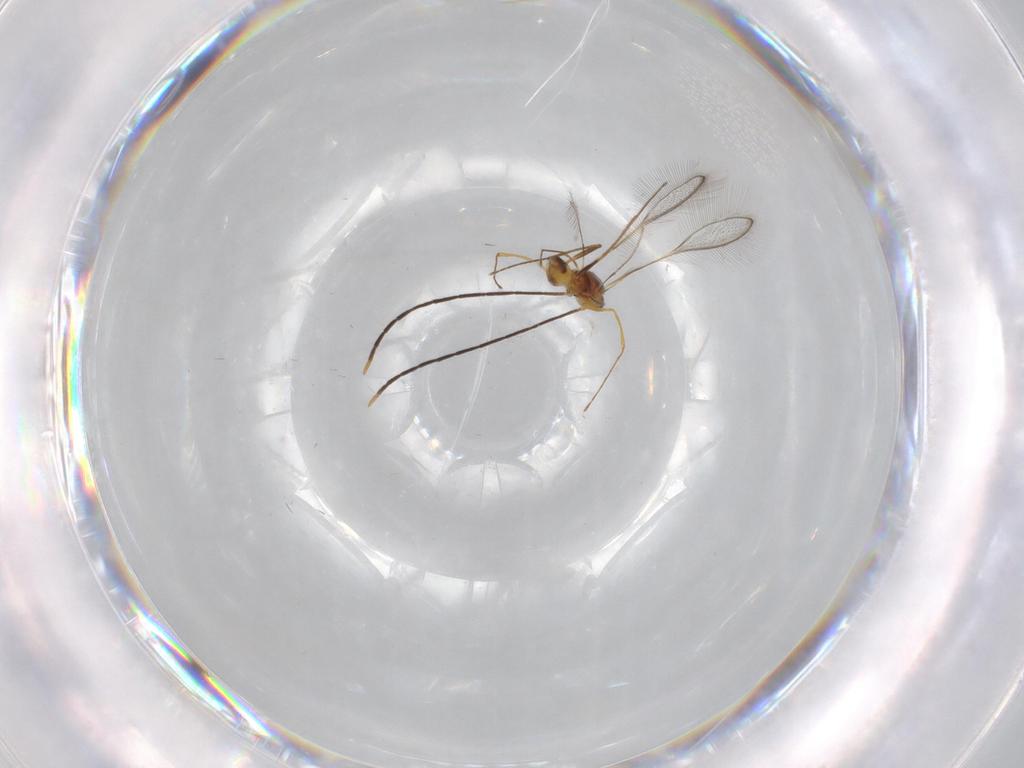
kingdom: Animalia
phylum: Arthropoda
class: Insecta
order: Hymenoptera
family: Mymaridae
